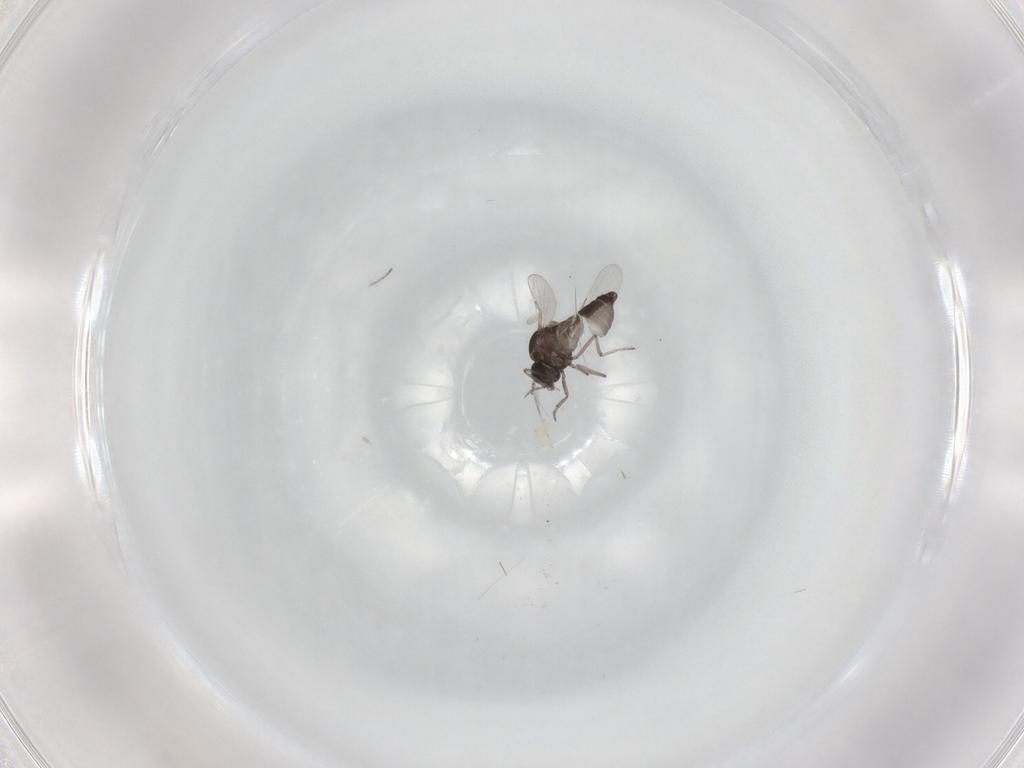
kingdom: Animalia
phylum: Arthropoda
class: Insecta
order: Diptera
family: Ceratopogonidae
